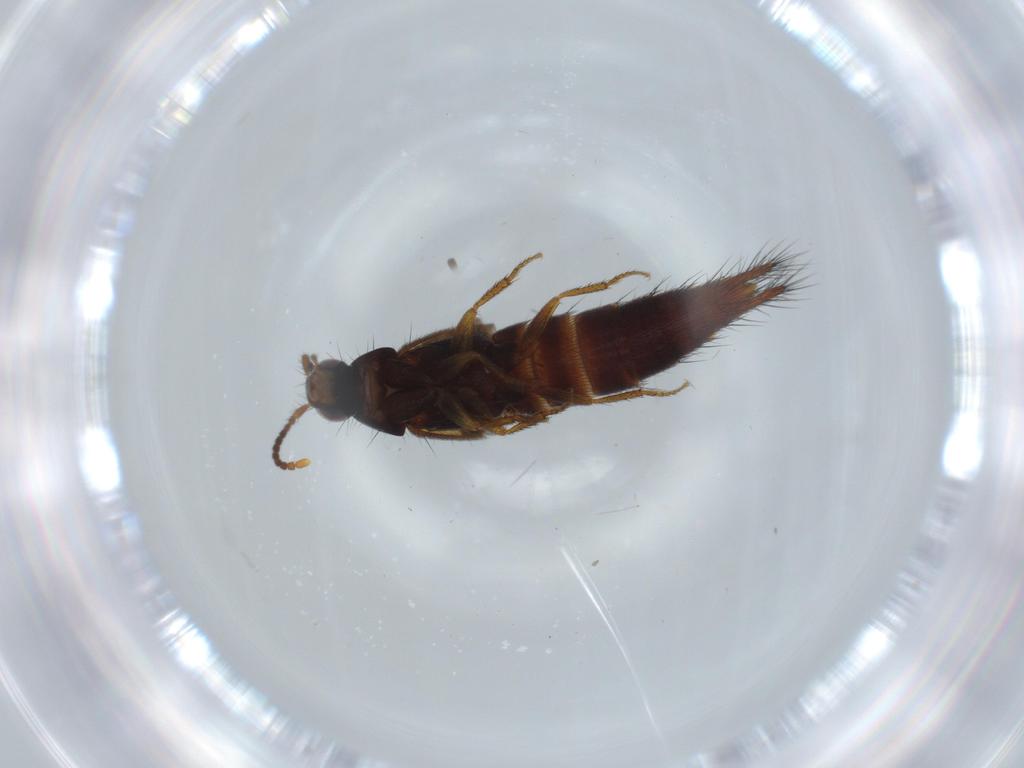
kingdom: Animalia
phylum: Arthropoda
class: Insecta
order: Coleoptera
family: Staphylinidae
